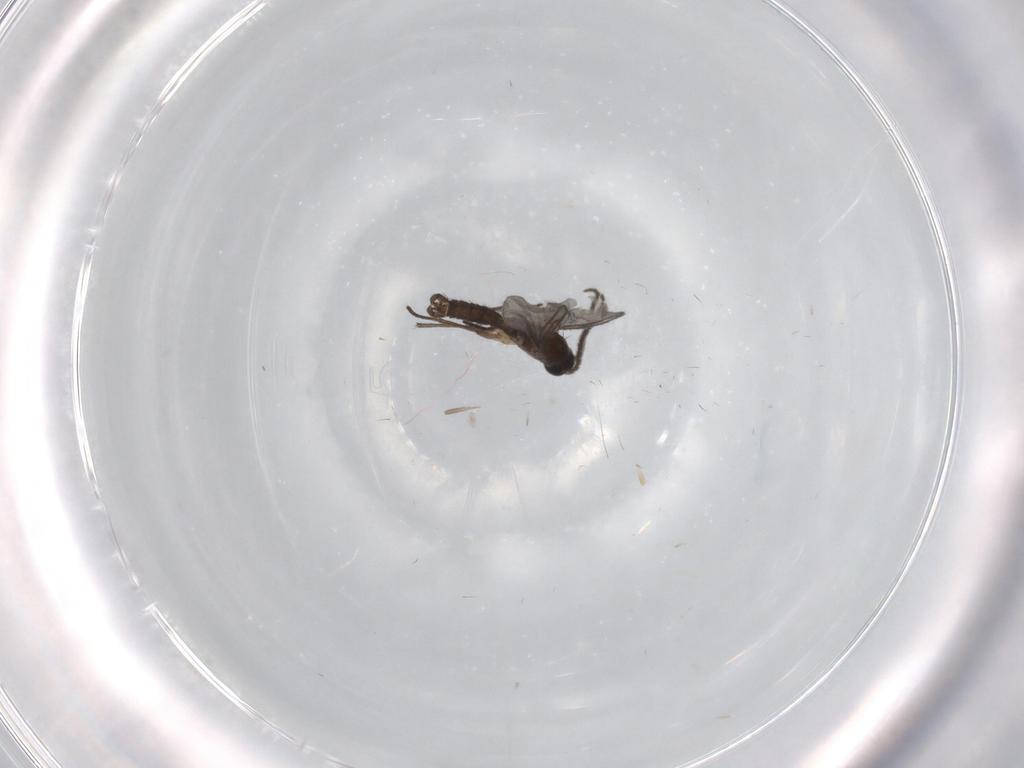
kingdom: Animalia
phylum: Arthropoda
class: Insecta
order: Diptera
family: Sciaridae
